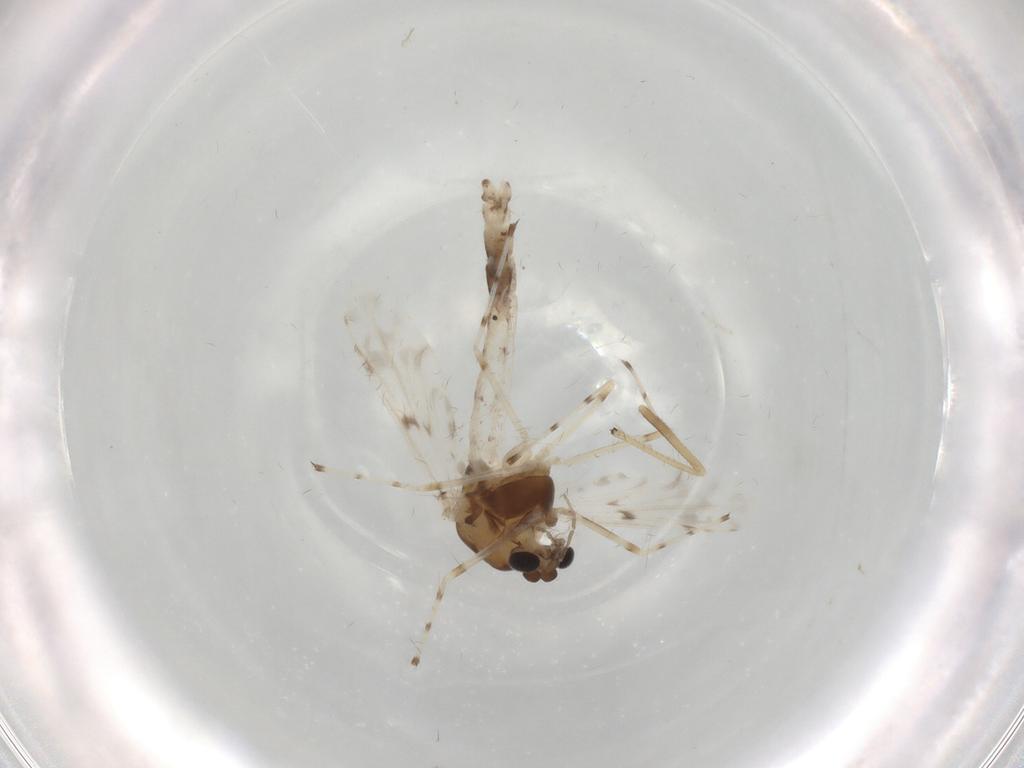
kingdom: Animalia
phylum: Arthropoda
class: Insecta
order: Diptera
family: Chironomidae
